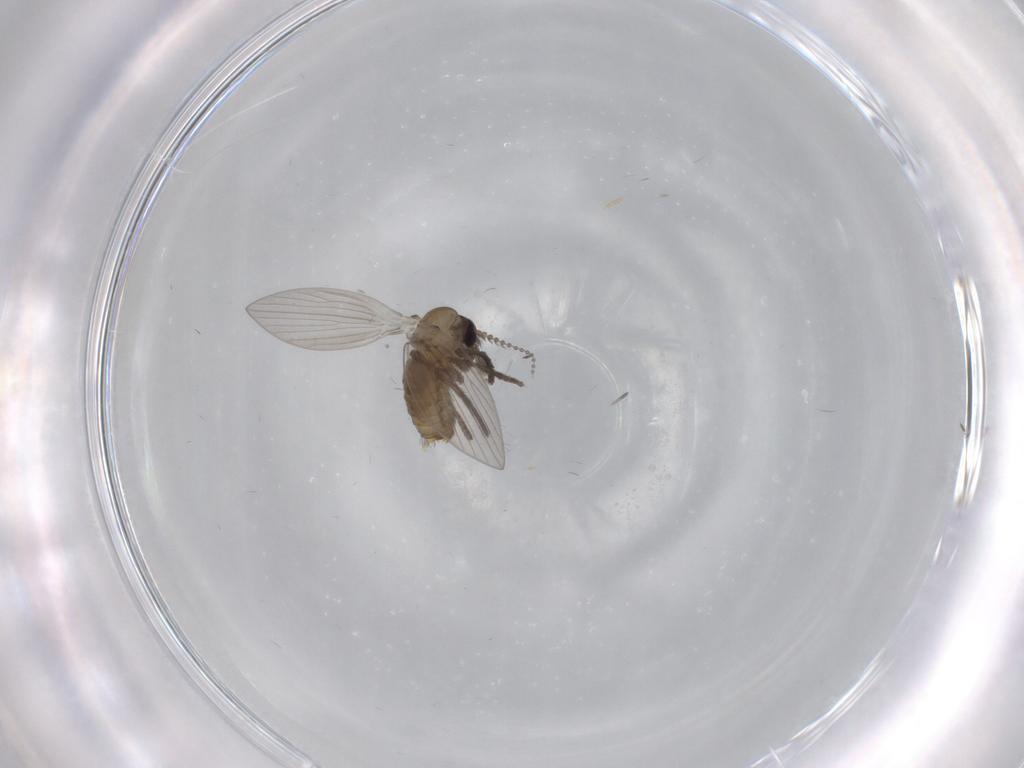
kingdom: Animalia
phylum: Arthropoda
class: Insecta
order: Diptera
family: Psychodidae
